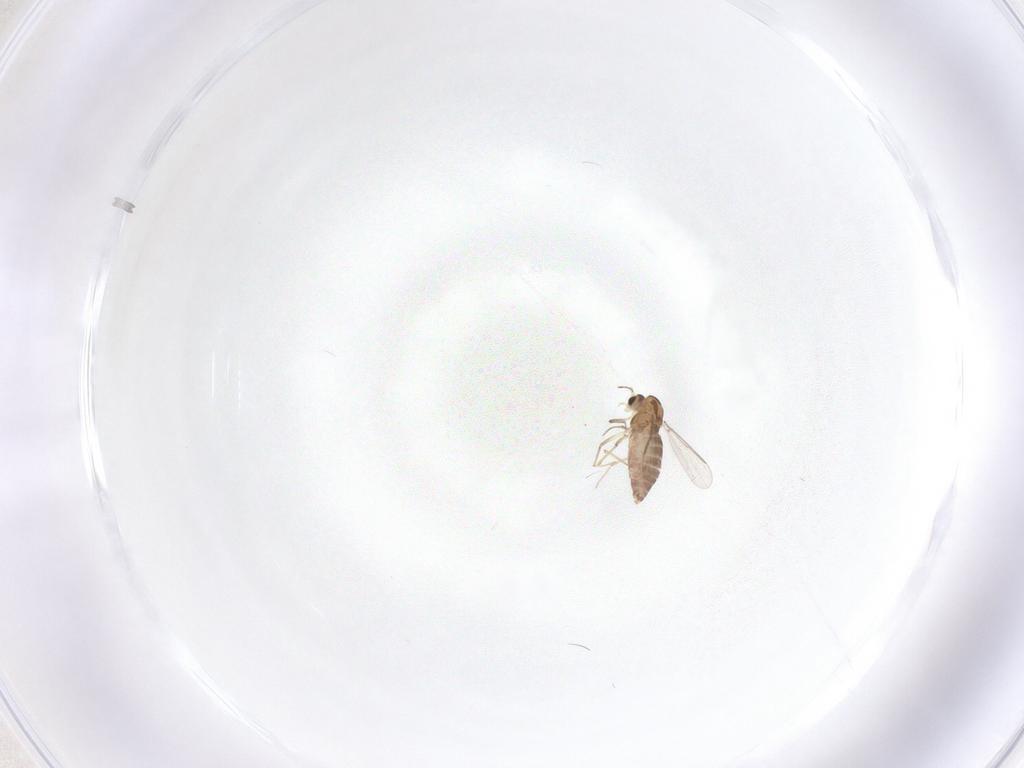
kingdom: Animalia
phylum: Arthropoda
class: Insecta
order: Diptera
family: Chironomidae
